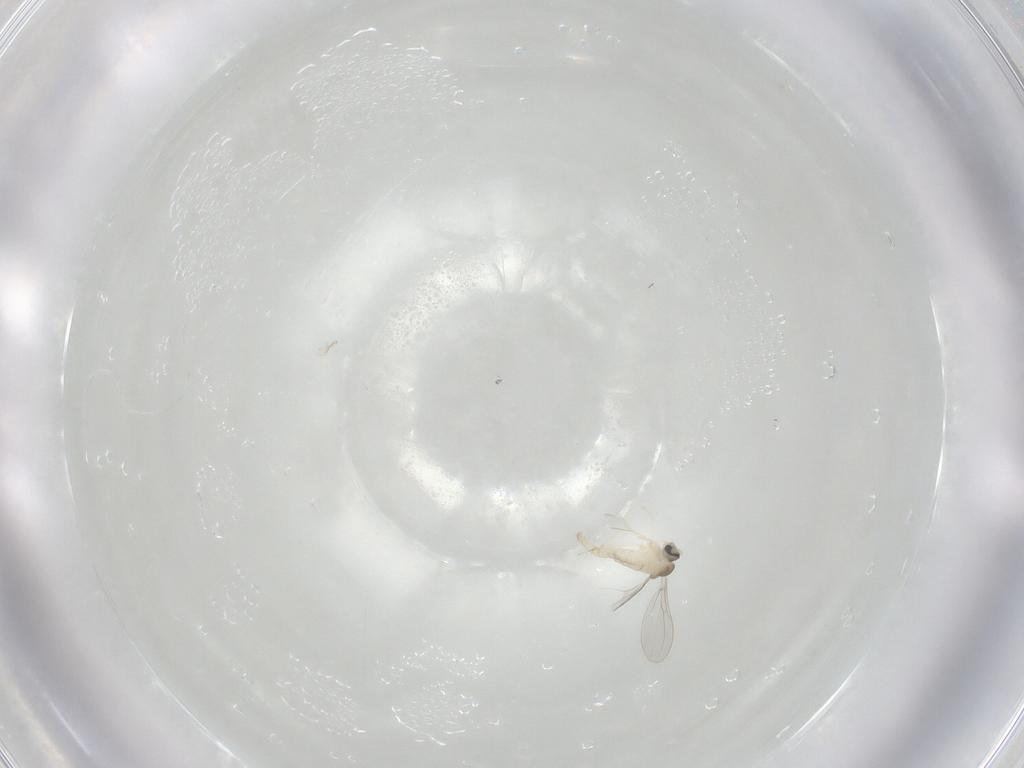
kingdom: Animalia
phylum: Arthropoda
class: Insecta
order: Diptera
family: Cecidomyiidae
